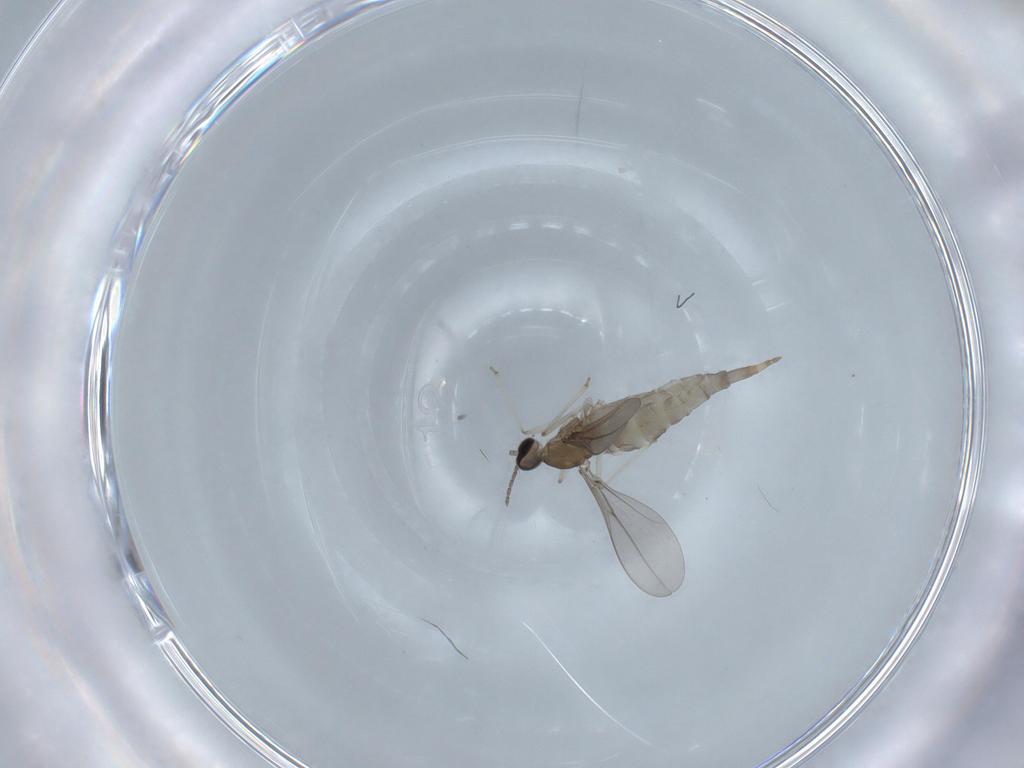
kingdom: Animalia
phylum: Arthropoda
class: Insecta
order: Diptera
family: Cecidomyiidae
